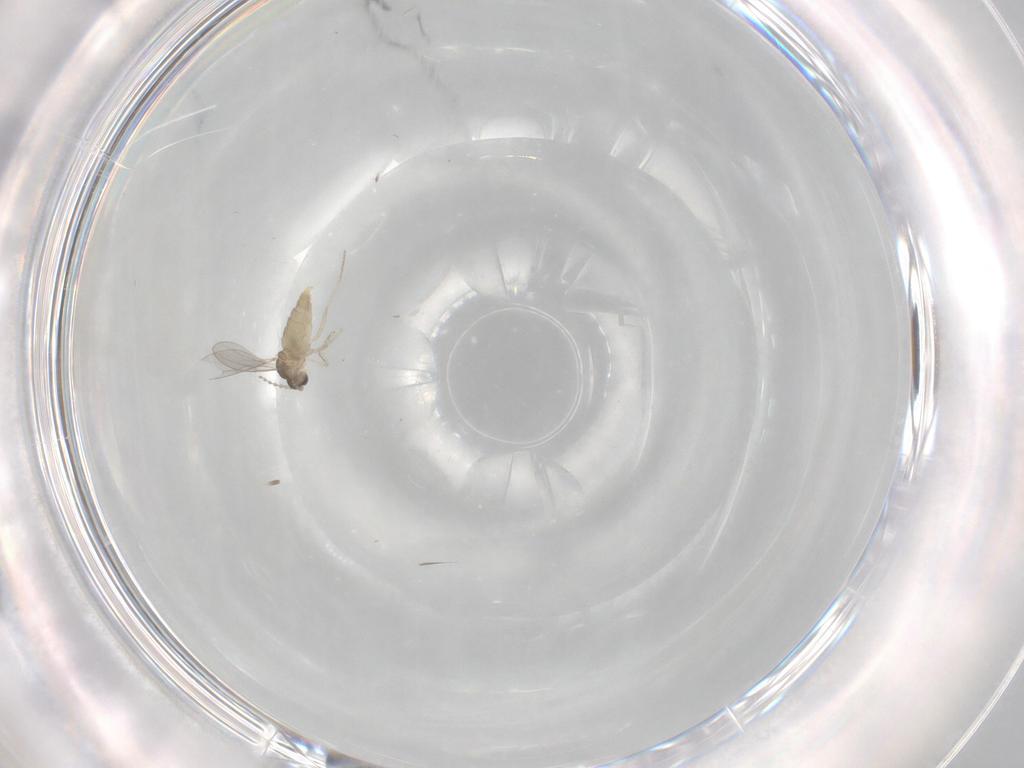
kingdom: Animalia
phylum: Arthropoda
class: Insecta
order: Diptera
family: Cecidomyiidae
